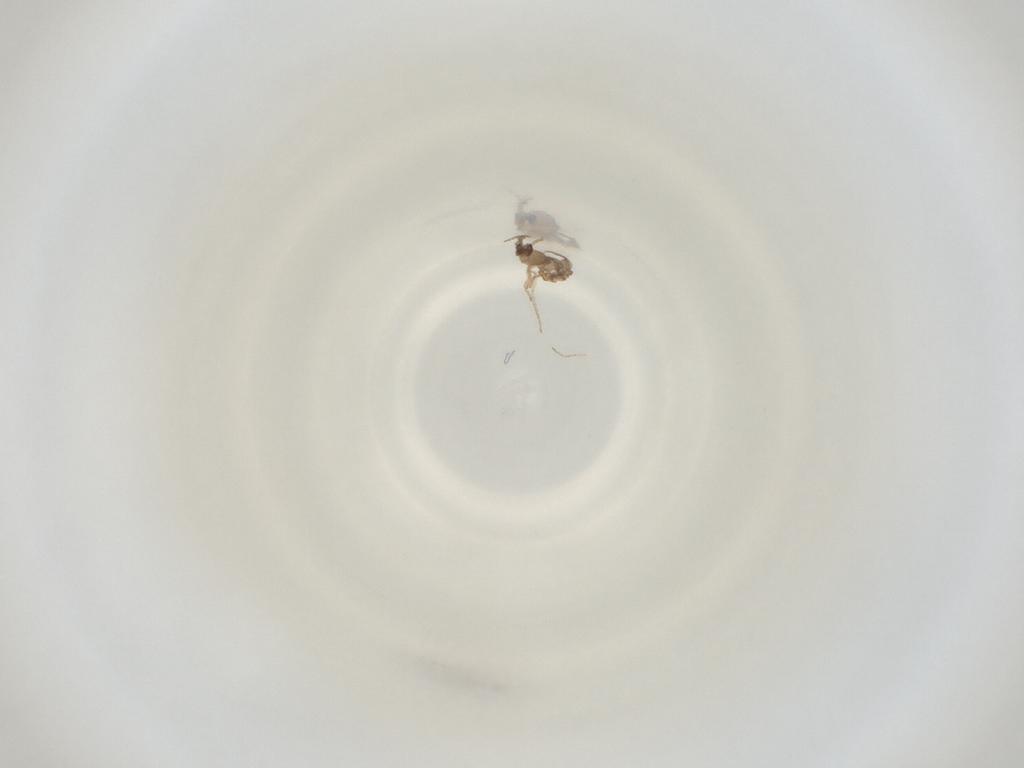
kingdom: Animalia
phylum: Arthropoda
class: Insecta
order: Diptera
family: Cecidomyiidae
